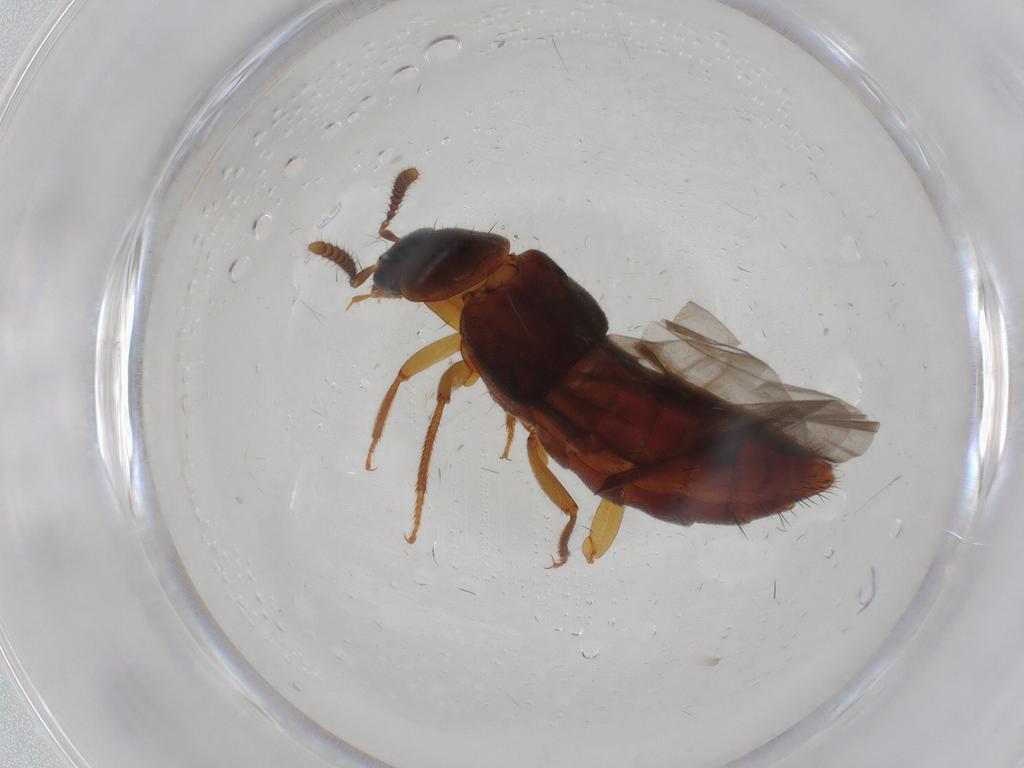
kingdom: Animalia
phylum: Arthropoda
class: Insecta
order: Coleoptera
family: Staphylinidae
